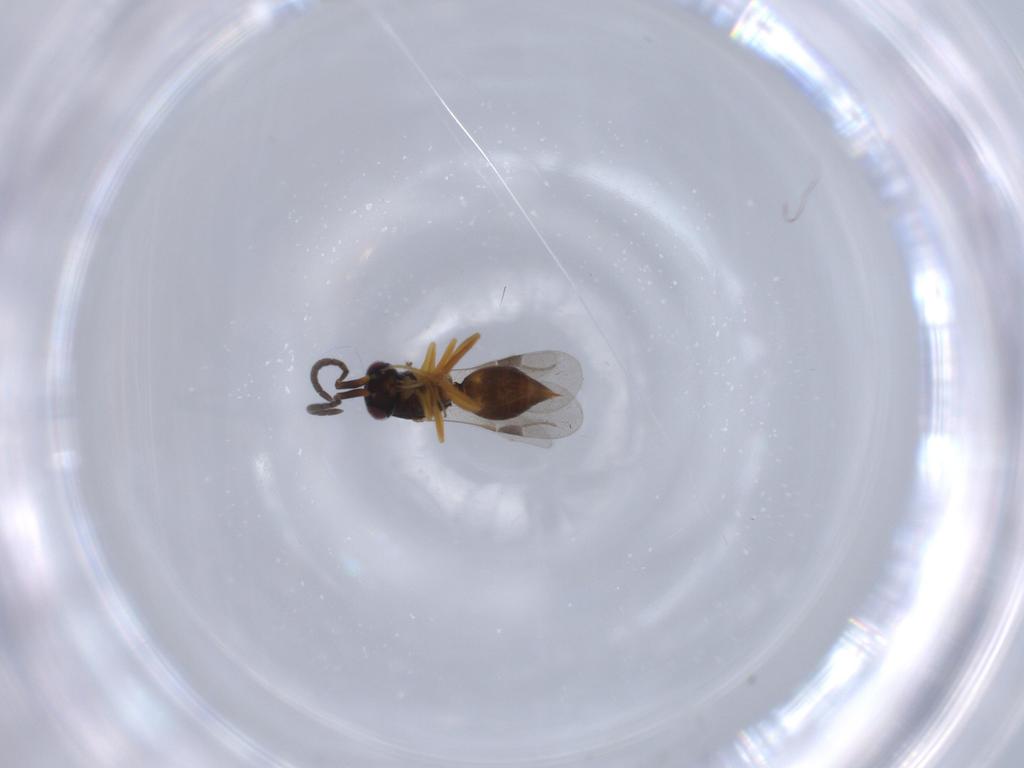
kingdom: Animalia
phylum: Arthropoda
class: Insecta
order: Hymenoptera
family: Megaspilidae
